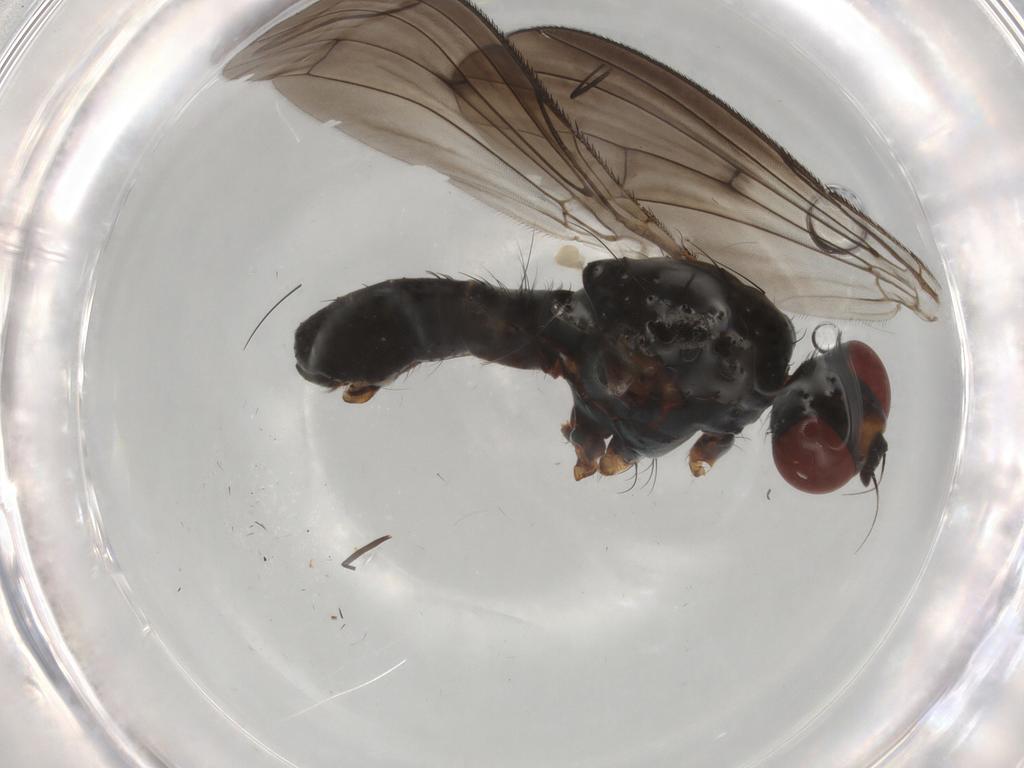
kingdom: Animalia
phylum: Arthropoda
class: Insecta
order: Diptera
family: Anthomyiidae
